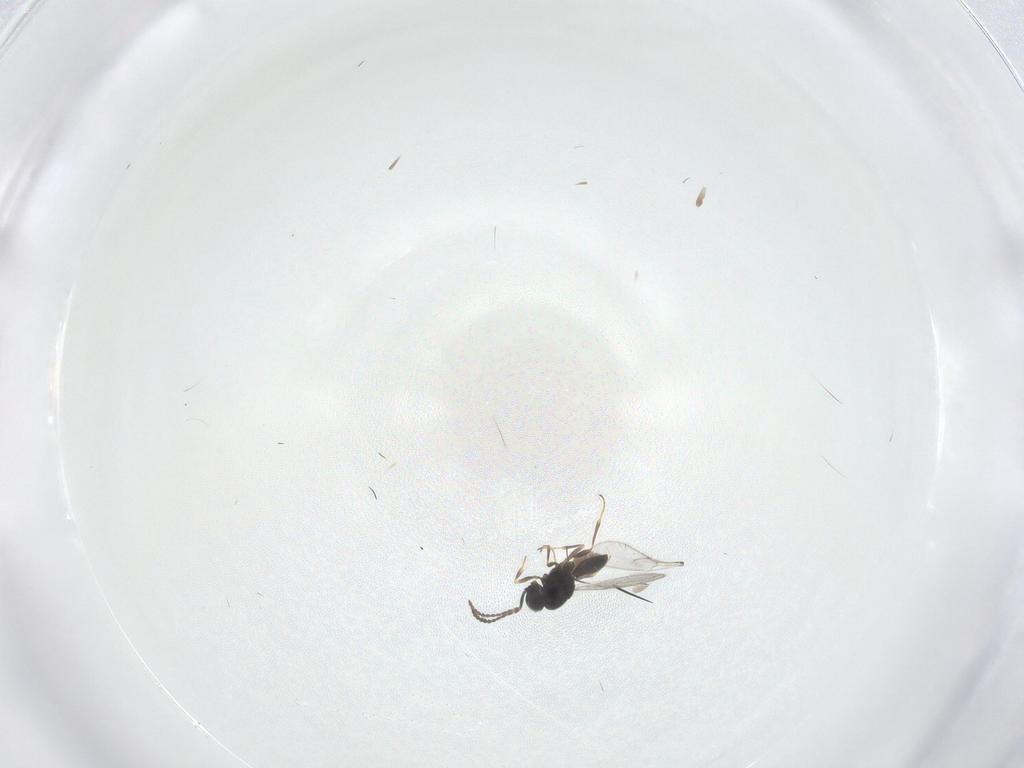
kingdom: Animalia
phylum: Arthropoda
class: Insecta
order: Hymenoptera
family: Scelionidae
